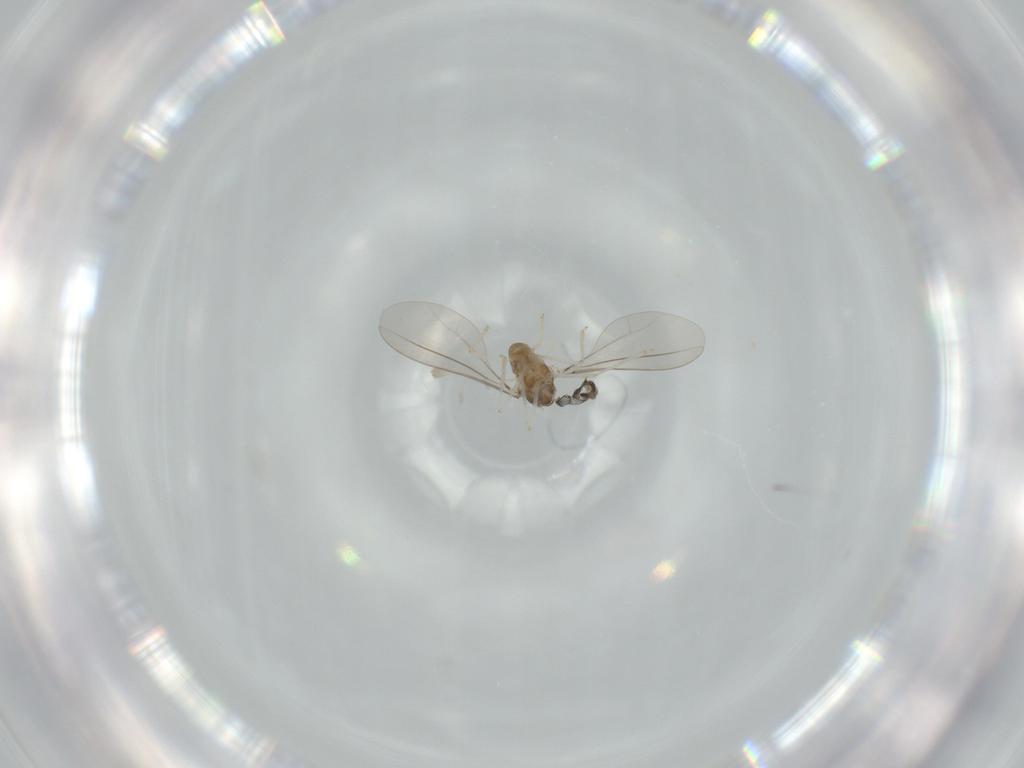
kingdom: Animalia
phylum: Arthropoda
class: Insecta
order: Diptera
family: Cecidomyiidae
